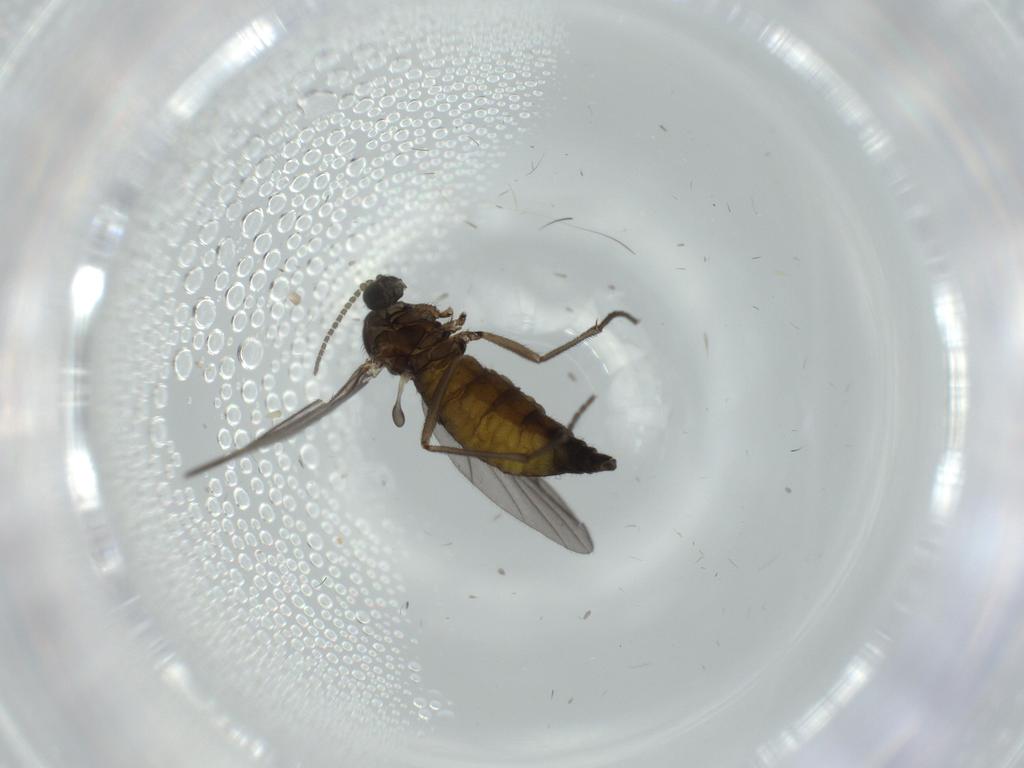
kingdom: Animalia
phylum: Arthropoda
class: Insecta
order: Diptera
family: Sciaridae
